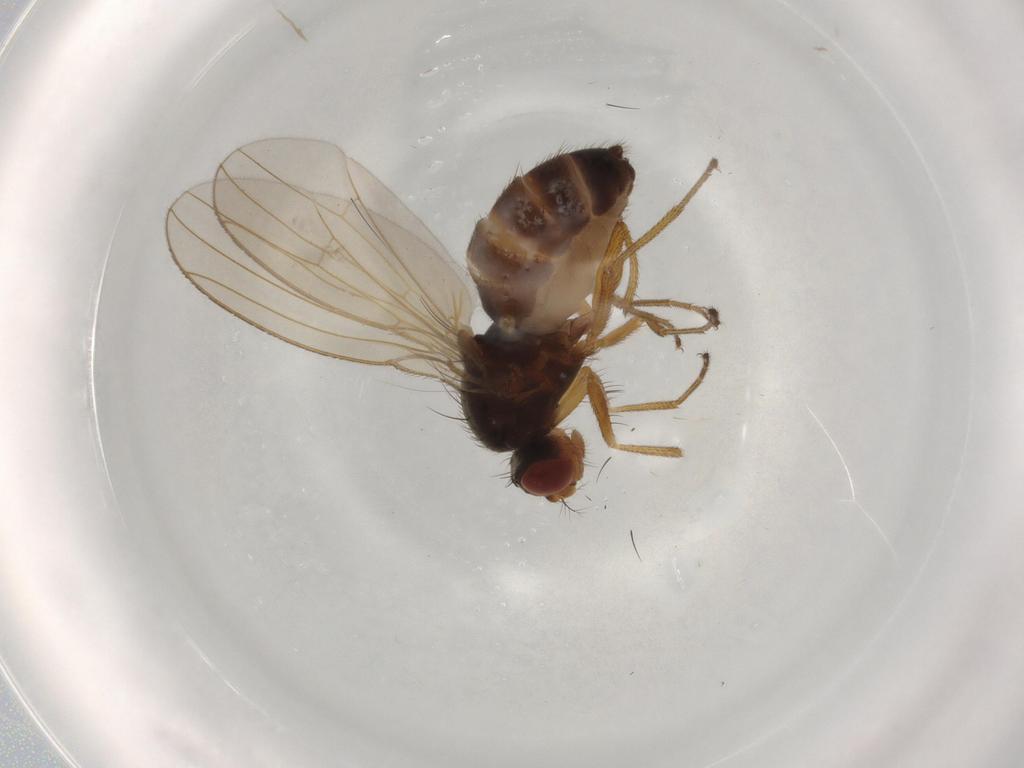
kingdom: Animalia
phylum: Arthropoda
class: Insecta
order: Diptera
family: Drosophilidae
